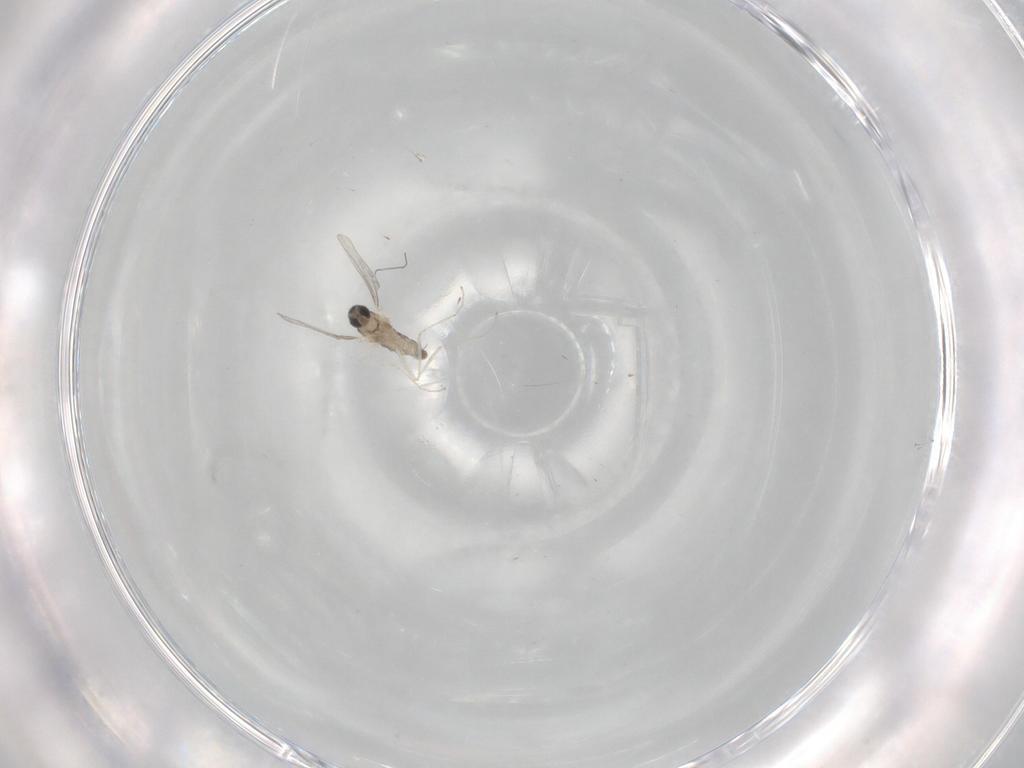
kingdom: Animalia
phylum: Arthropoda
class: Insecta
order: Diptera
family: Cecidomyiidae
